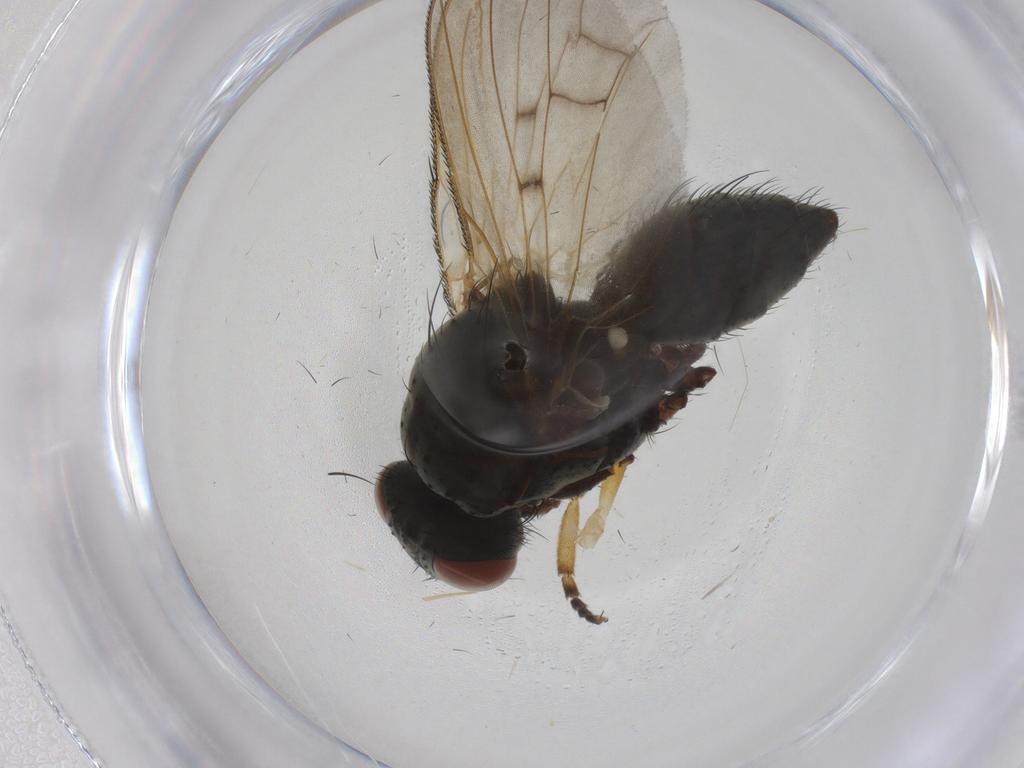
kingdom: Animalia
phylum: Arthropoda
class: Insecta
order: Diptera
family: Anthomyiidae
